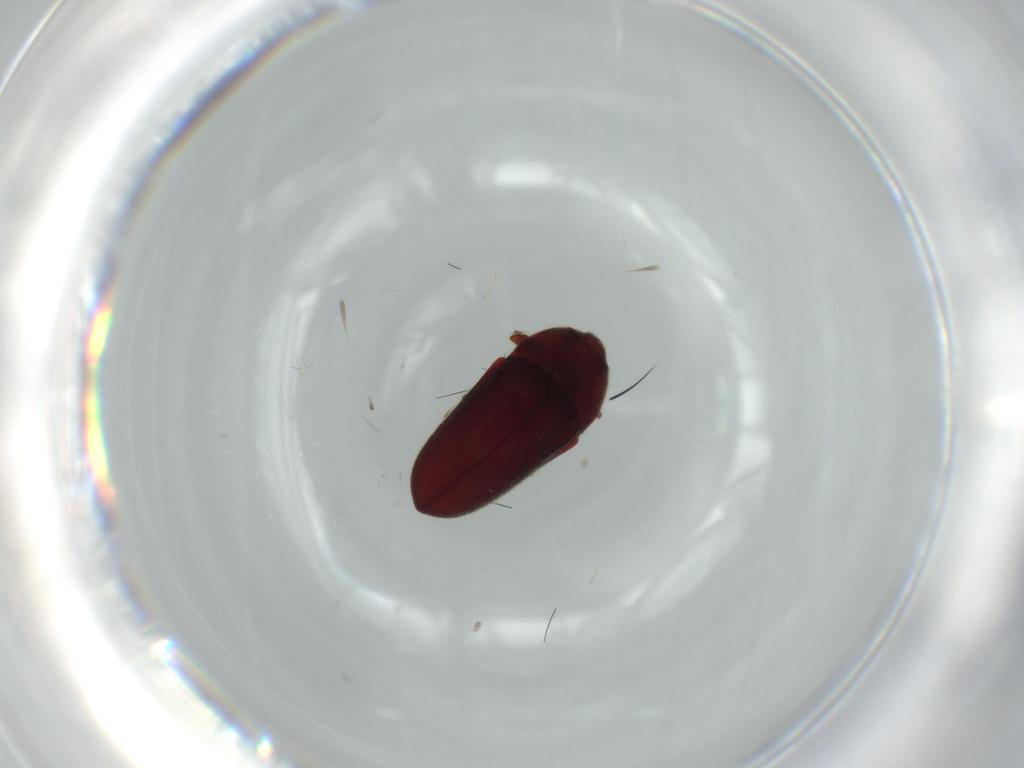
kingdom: Animalia
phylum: Arthropoda
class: Insecta
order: Coleoptera
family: Throscidae
